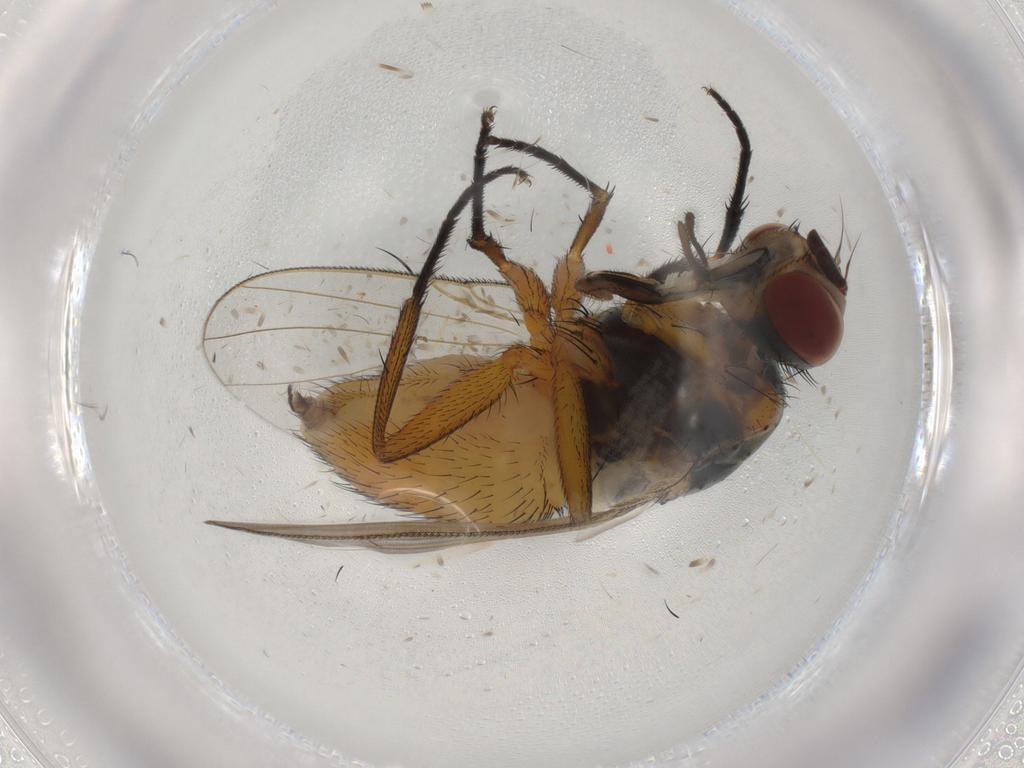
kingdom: Animalia
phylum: Arthropoda
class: Insecta
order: Diptera
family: Muscidae
